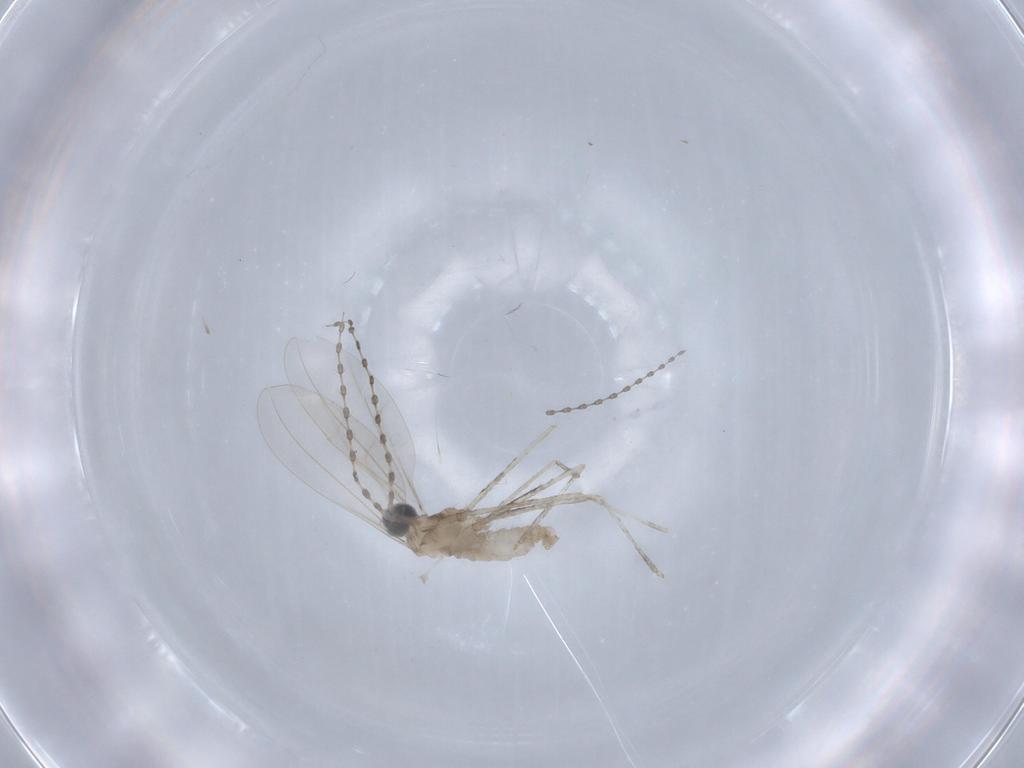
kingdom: Animalia
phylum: Arthropoda
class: Insecta
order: Diptera
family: Cecidomyiidae
